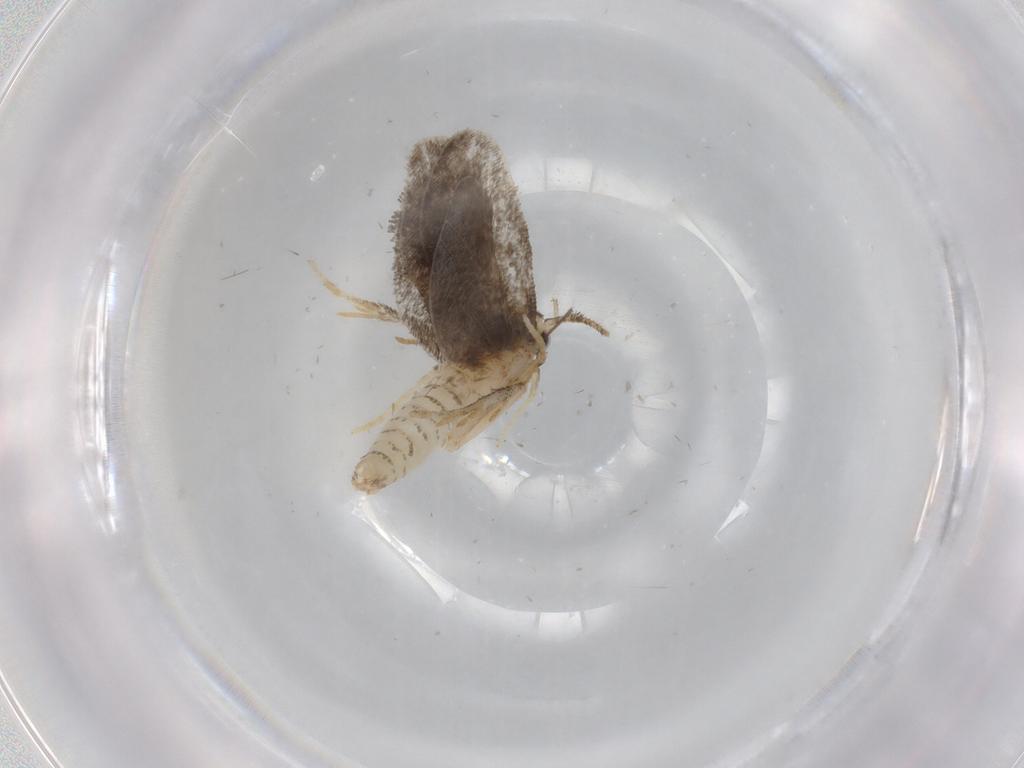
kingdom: Animalia
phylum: Arthropoda
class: Insecta
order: Lepidoptera
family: Psychidae
